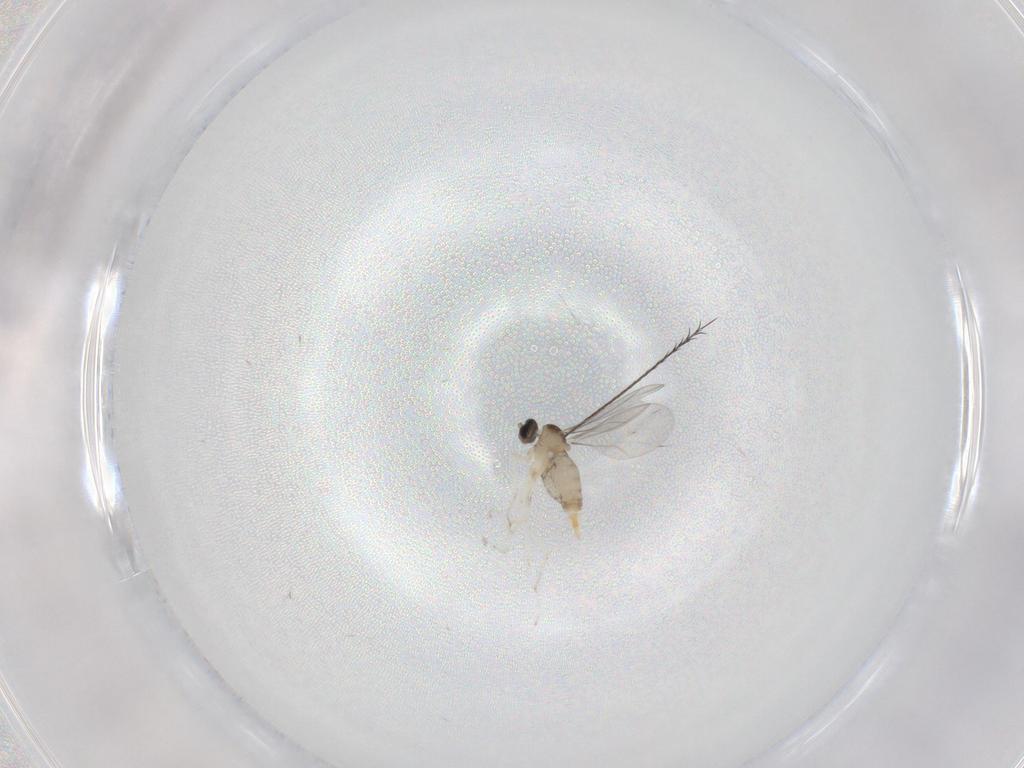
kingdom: Animalia
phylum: Arthropoda
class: Insecta
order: Diptera
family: Cecidomyiidae
